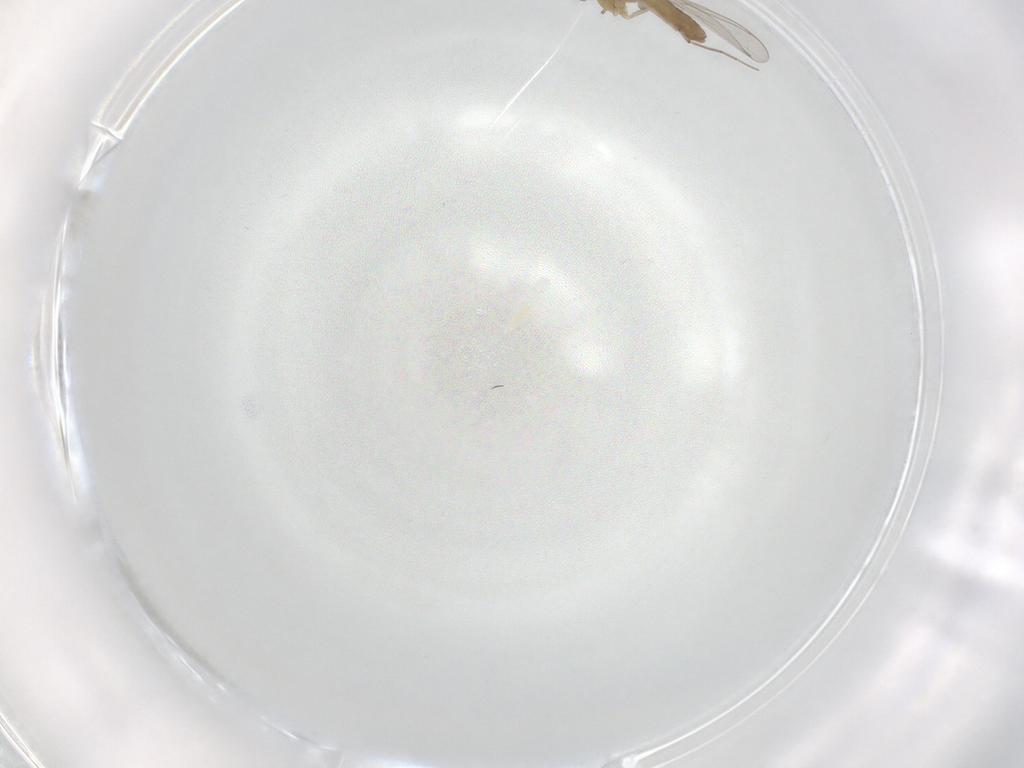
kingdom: Animalia
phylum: Arthropoda
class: Insecta
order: Diptera
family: Chironomidae
